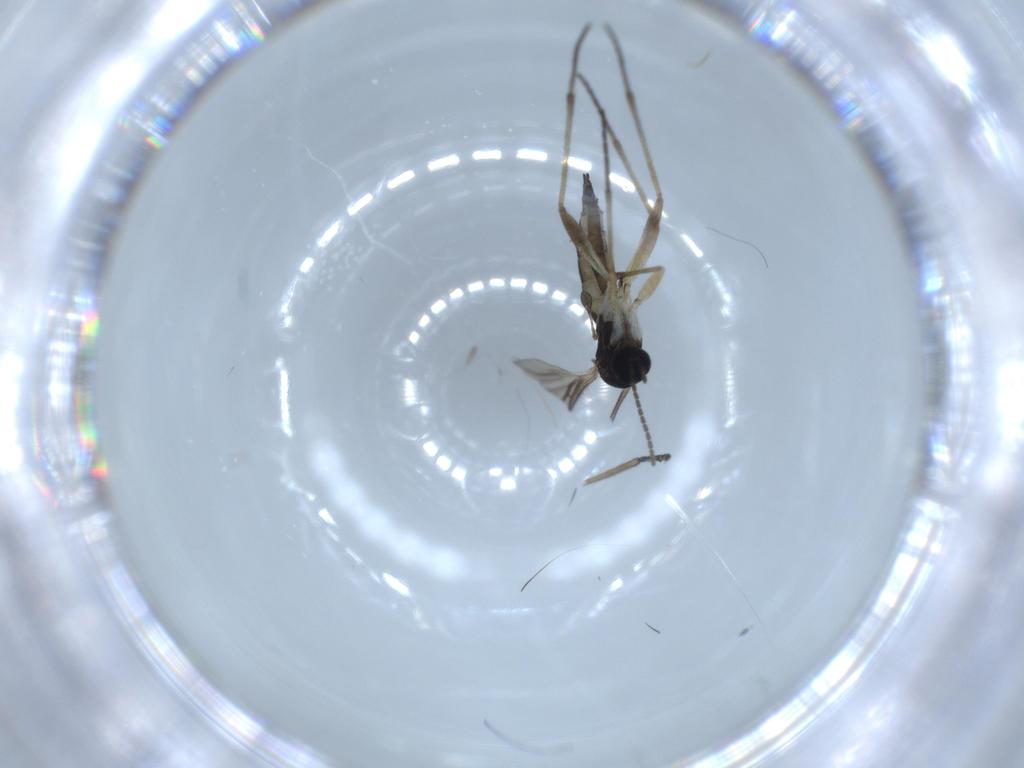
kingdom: Animalia
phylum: Arthropoda
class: Insecta
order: Diptera
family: Sciaridae
